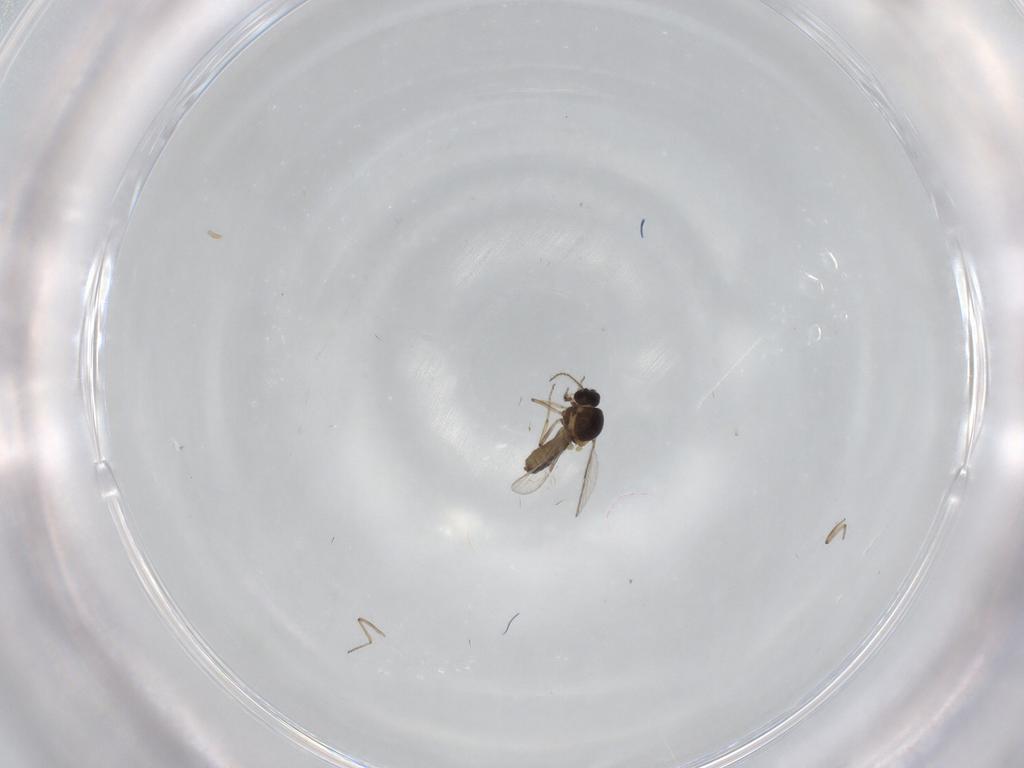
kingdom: Animalia
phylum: Arthropoda
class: Insecta
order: Diptera
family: Ceratopogonidae
